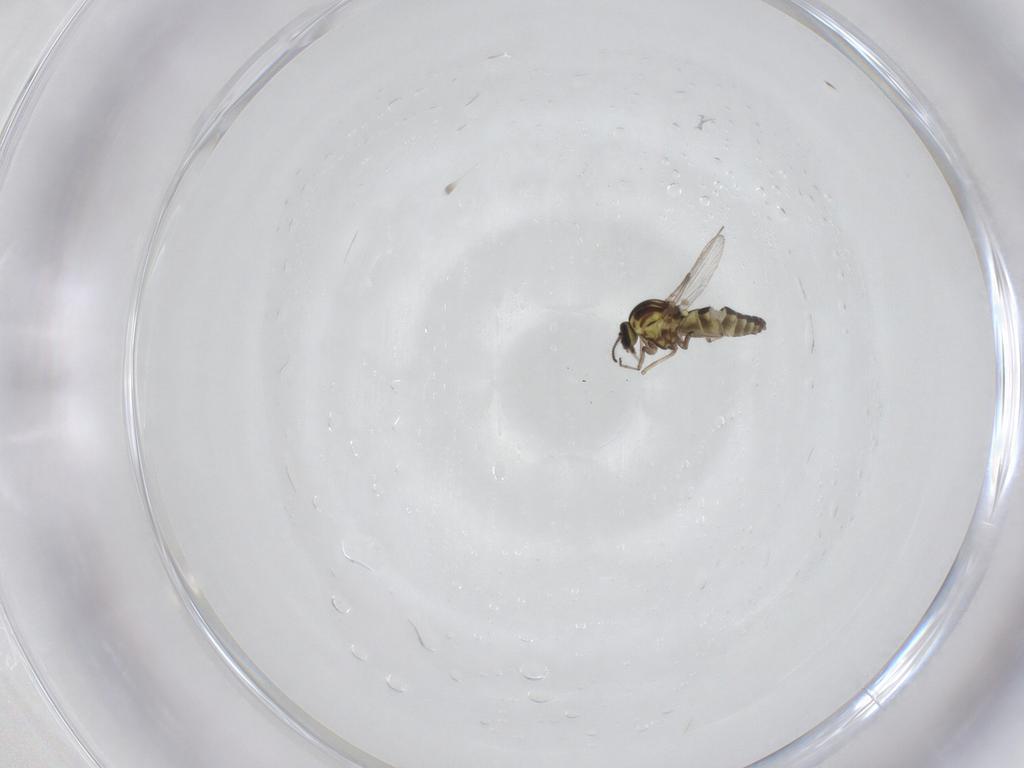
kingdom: Animalia
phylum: Arthropoda
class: Insecta
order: Diptera
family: Ceratopogonidae
